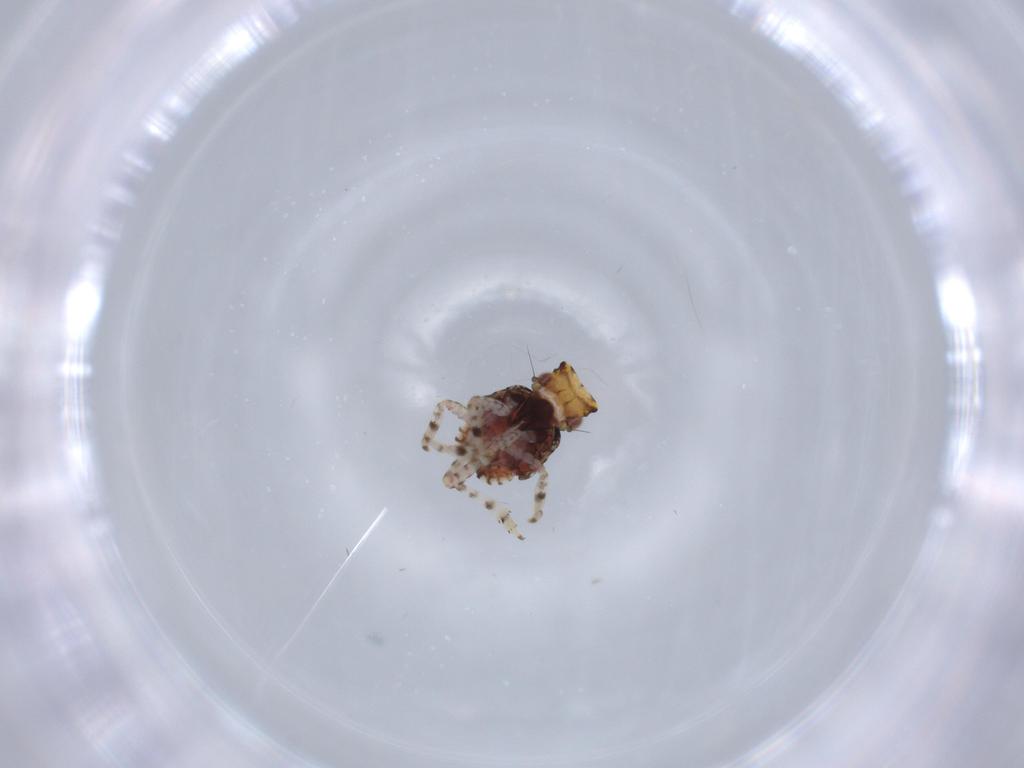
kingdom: Animalia
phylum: Arthropoda
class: Insecta
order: Hemiptera
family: Fulgoroidea_incertae_sedis
